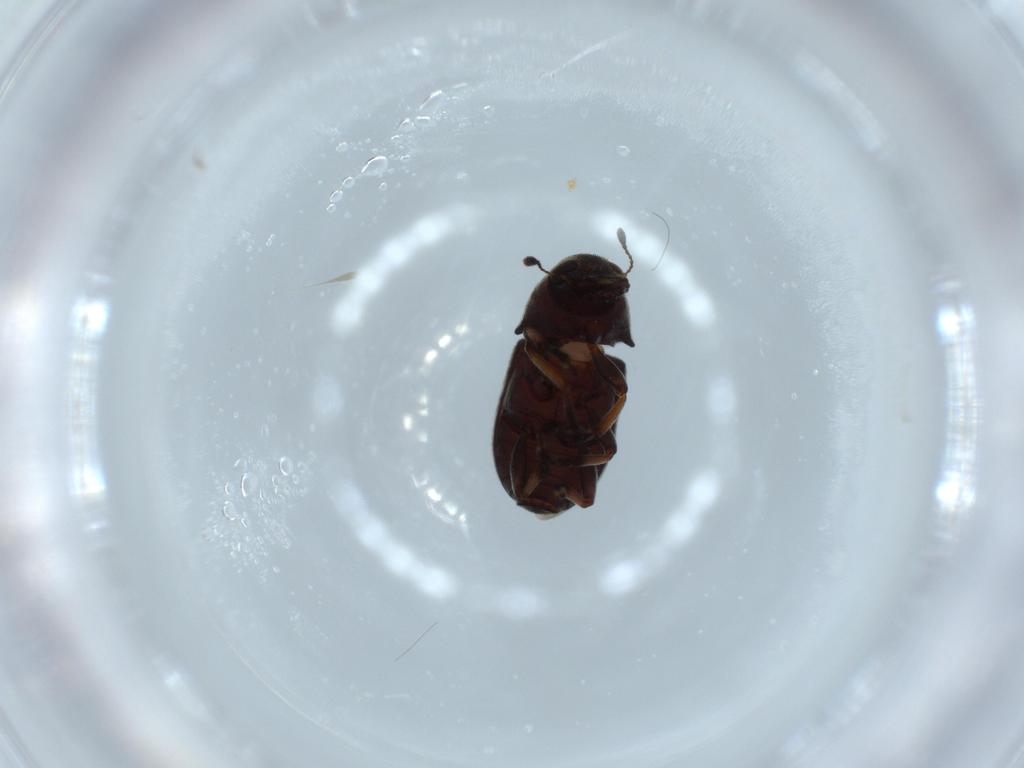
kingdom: Animalia
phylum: Arthropoda
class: Insecta
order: Coleoptera
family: Anthribidae
